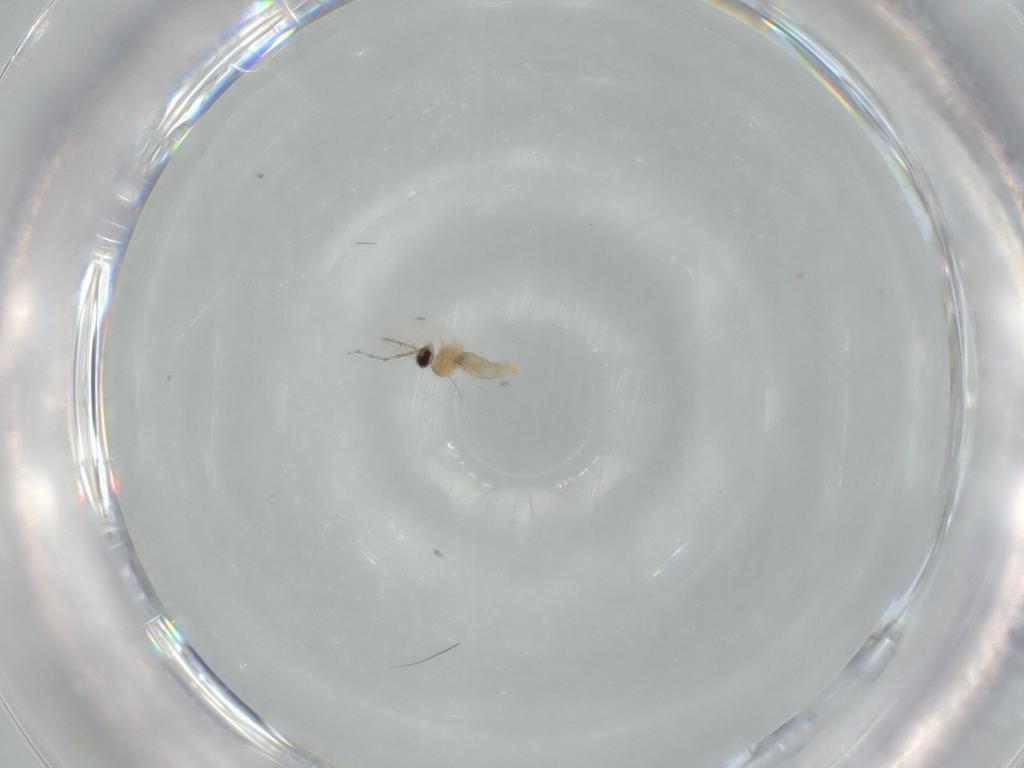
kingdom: Animalia
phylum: Arthropoda
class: Insecta
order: Diptera
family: Cecidomyiidae
